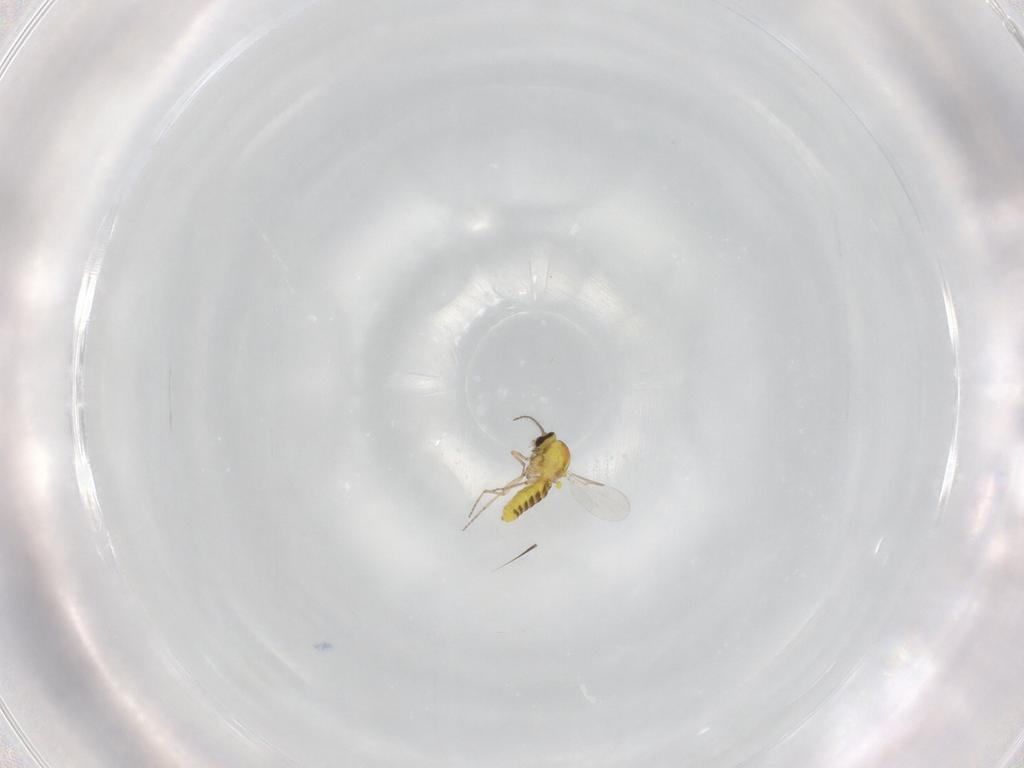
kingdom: Animalia
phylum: Arthropoda
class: Insecta
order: Diptera
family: Ceratopogonidae
